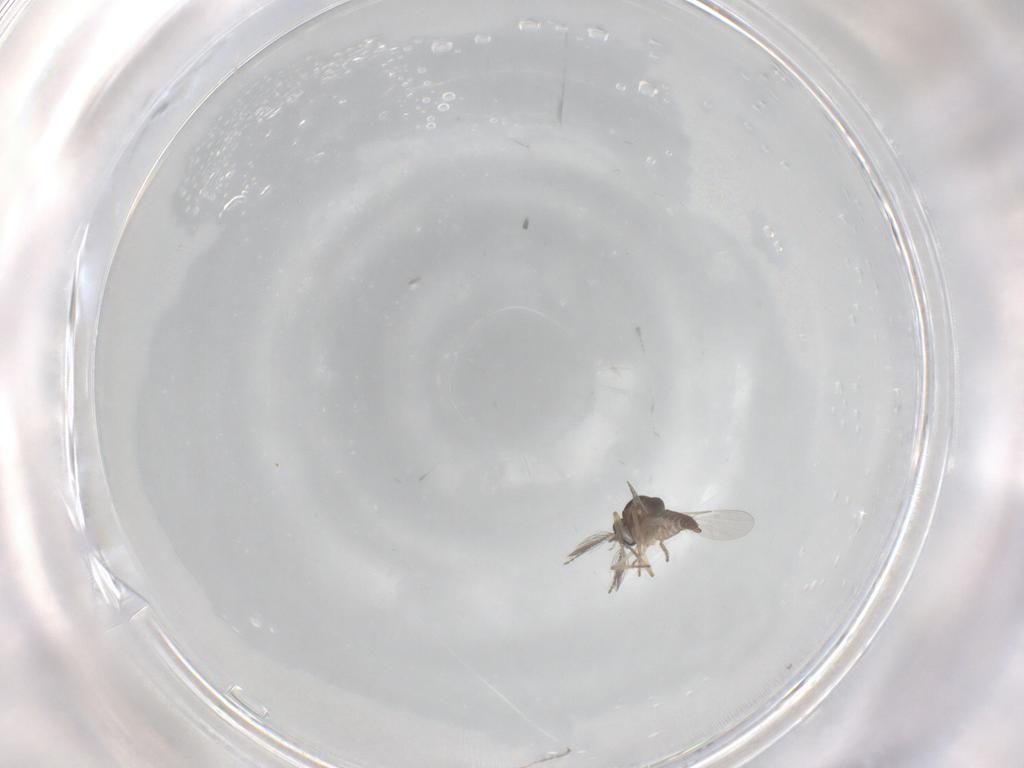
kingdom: Animalia
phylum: Arthropoda
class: Insecta
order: Diptera
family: Ceratopogonidae
